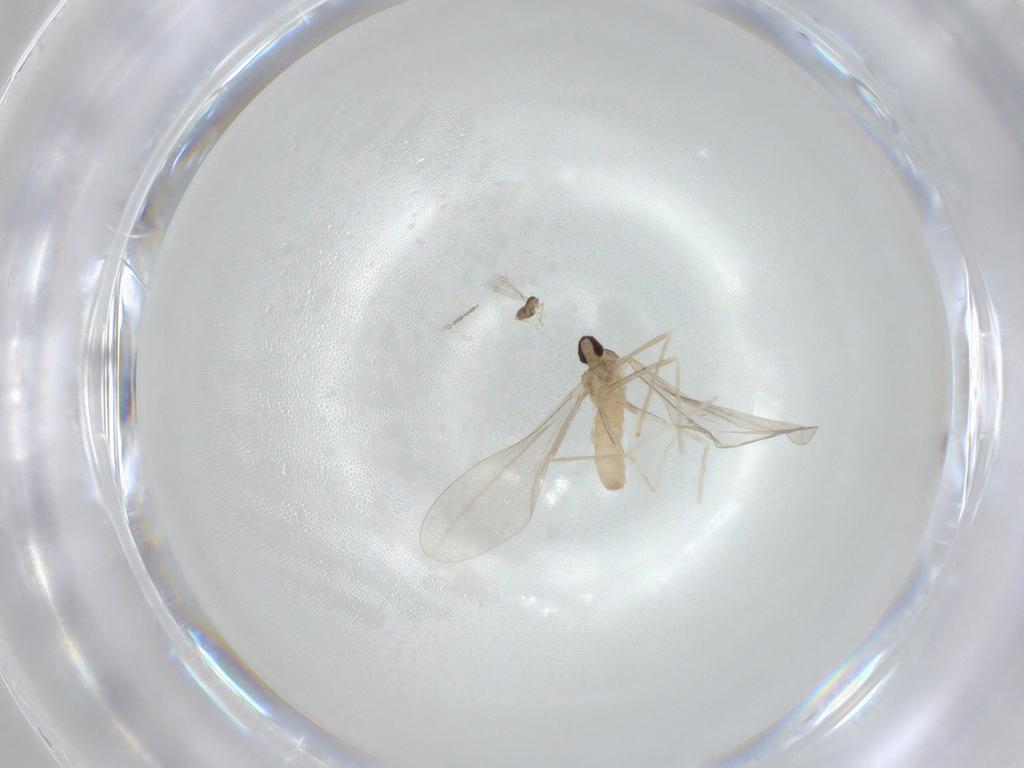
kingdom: Animalia
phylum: Arthropoda
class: Insecta
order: Diptera
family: Cecidomyiidae
